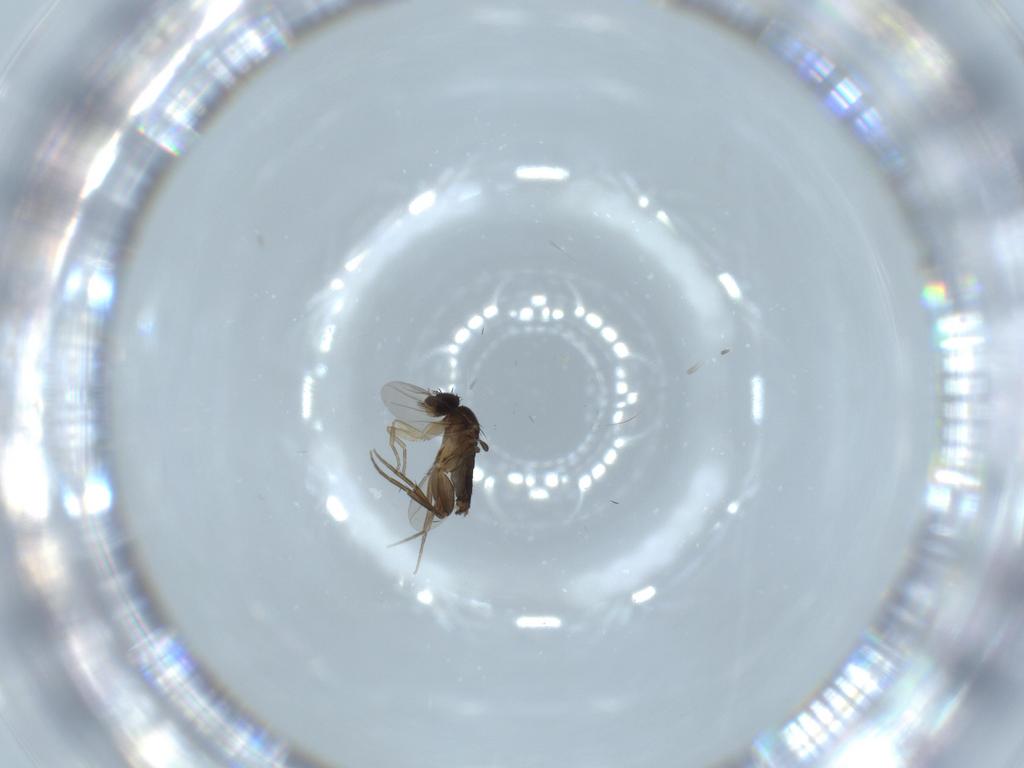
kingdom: Animalia
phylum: Arthropoda
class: Insecta
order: Diptera
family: Phoridae
